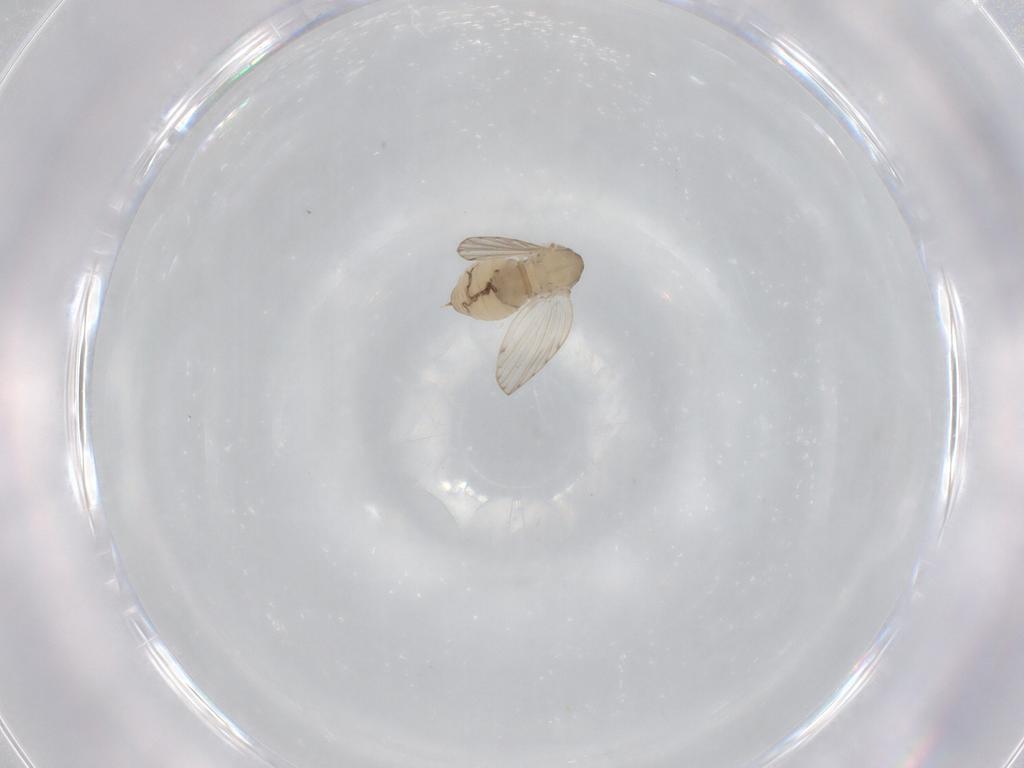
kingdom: Animalia
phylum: Arthropoda
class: Insecta
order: Diptera
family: Psychodidae
